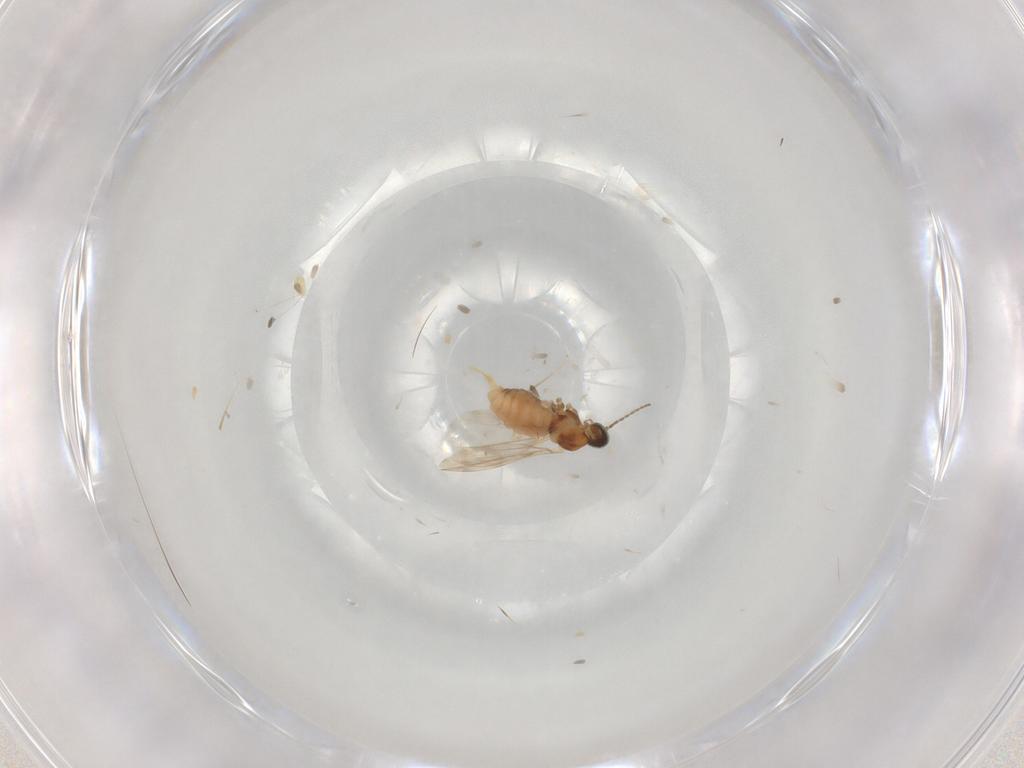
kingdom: Animalia
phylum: Arthropoda
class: Insecta
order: Diptera
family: Cecidomyiidae
